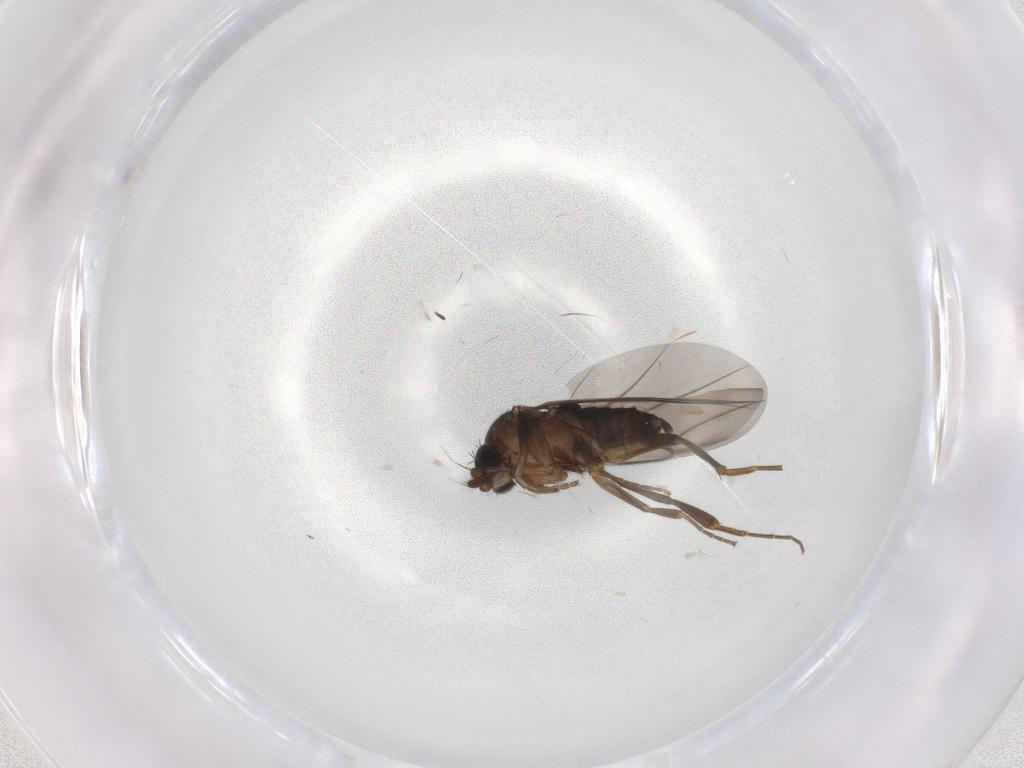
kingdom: Animalia
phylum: Arthropoda
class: Insecta
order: Diptera
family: Phoridae
